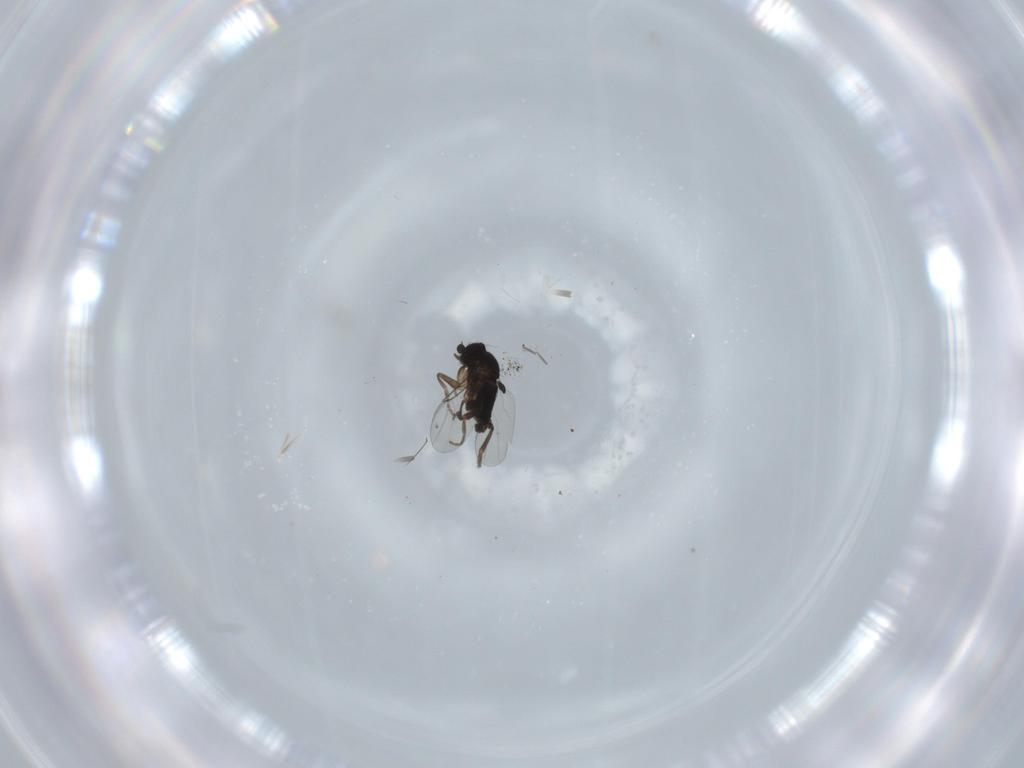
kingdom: Animalia
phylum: Arthropoda
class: Insecta
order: Diptera
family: Phoridae
